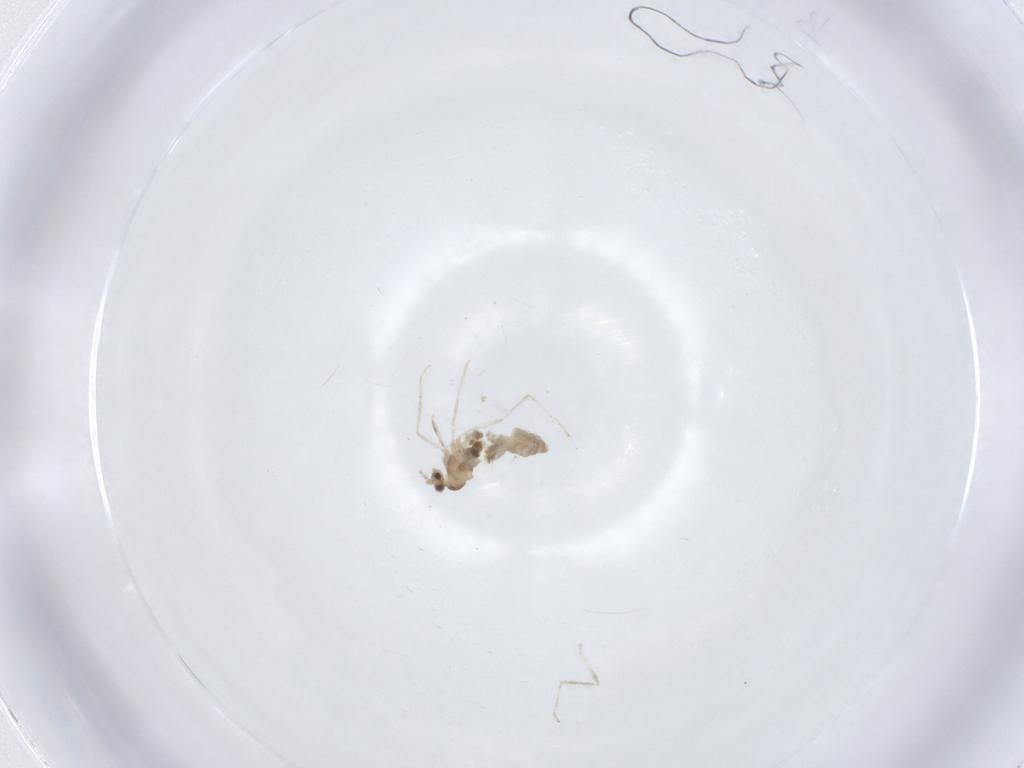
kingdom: Animalia
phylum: Arthropoda
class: Insecta
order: Diptera
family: Cecidomyiidae
